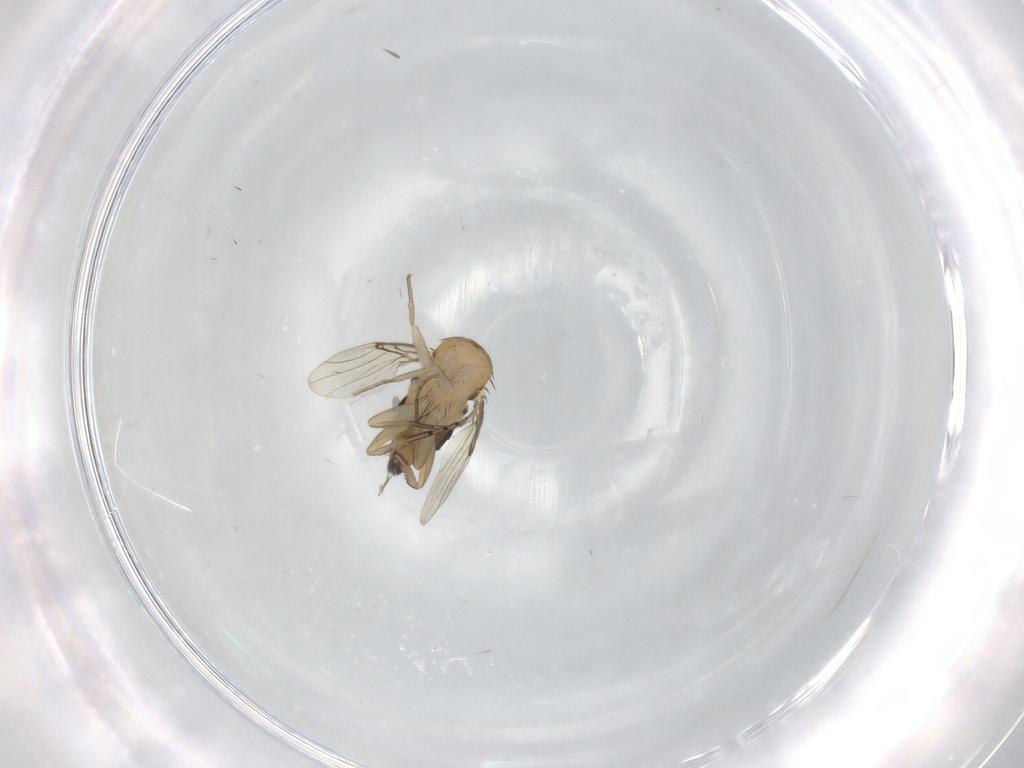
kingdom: Animalia
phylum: Arthropoda
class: Insecta
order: Diptera
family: Phoridae
